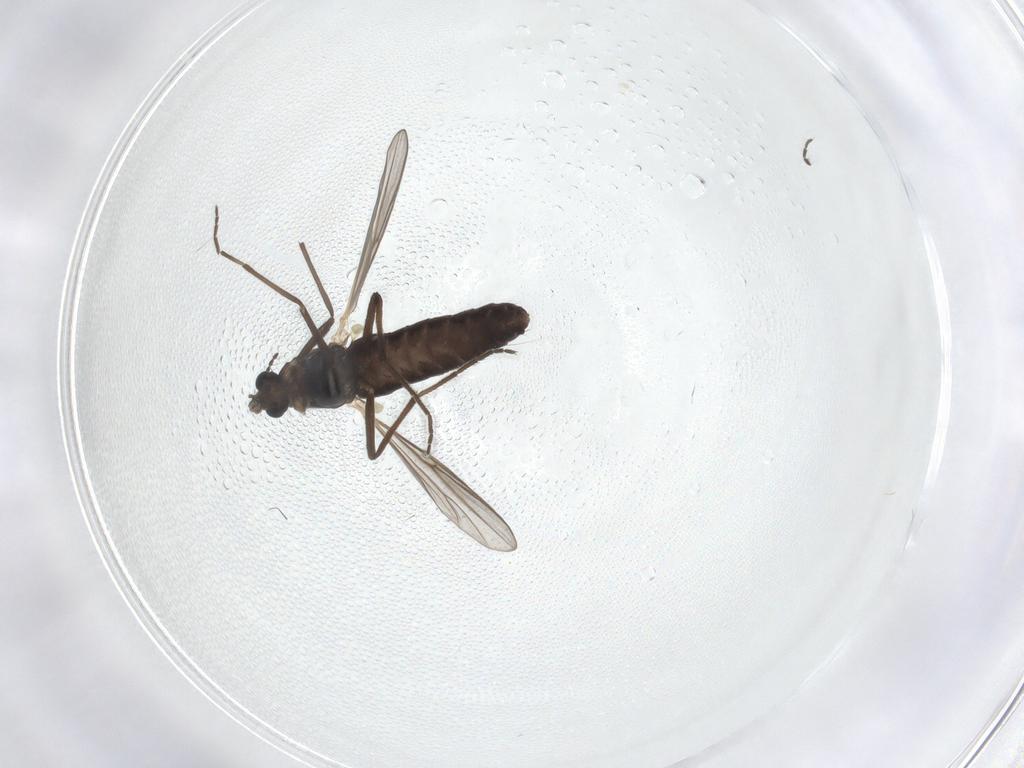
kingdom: Animalia
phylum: Arthropoda
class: Insecta
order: Diptera
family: Chironomidae
